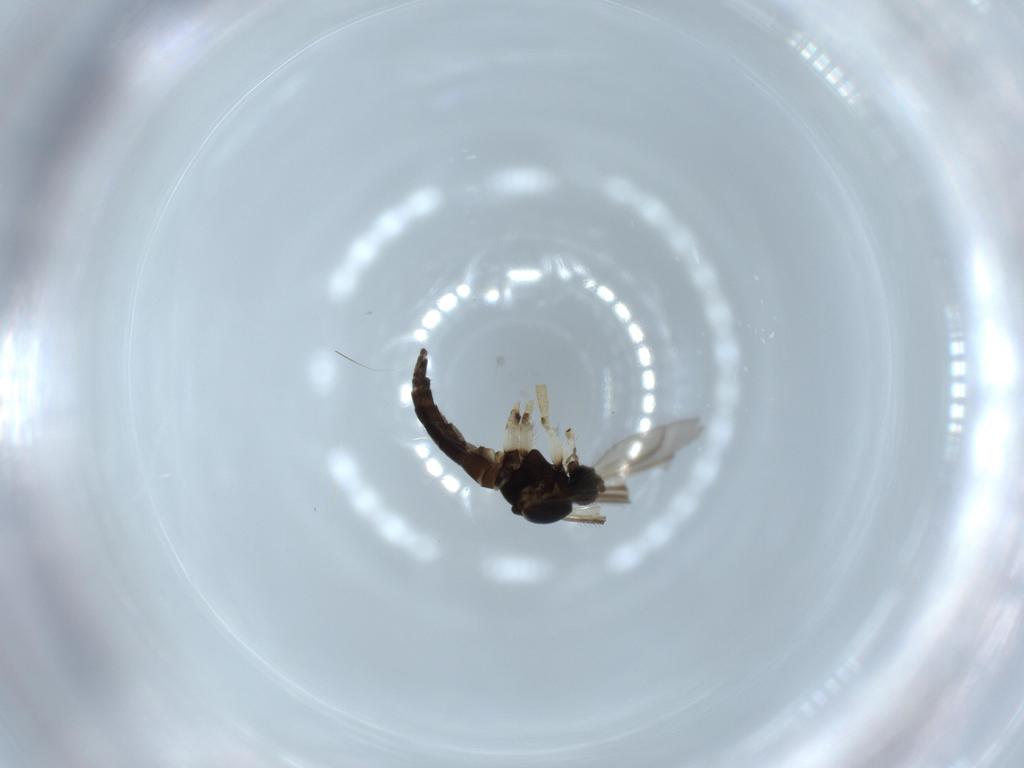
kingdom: Animalia
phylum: Arthropoda
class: Insecta
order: Diptera
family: Sciaridae
